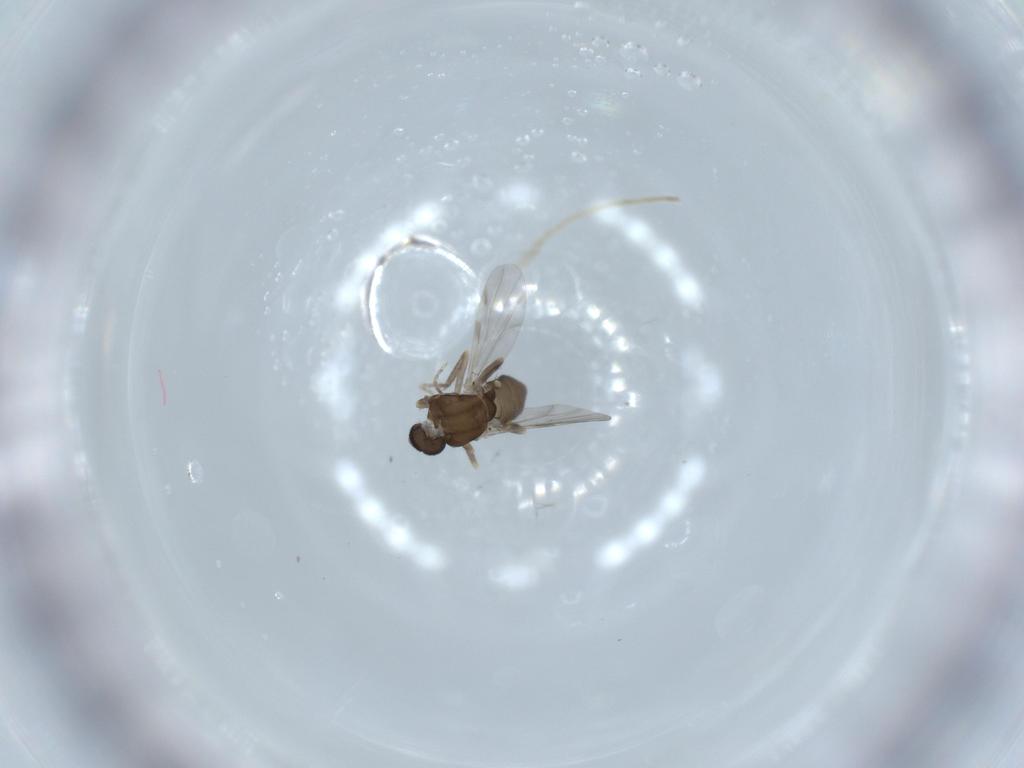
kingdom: Animalia
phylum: Arthropoda
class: Insecta
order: Diptera
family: Ceratopogonidae
